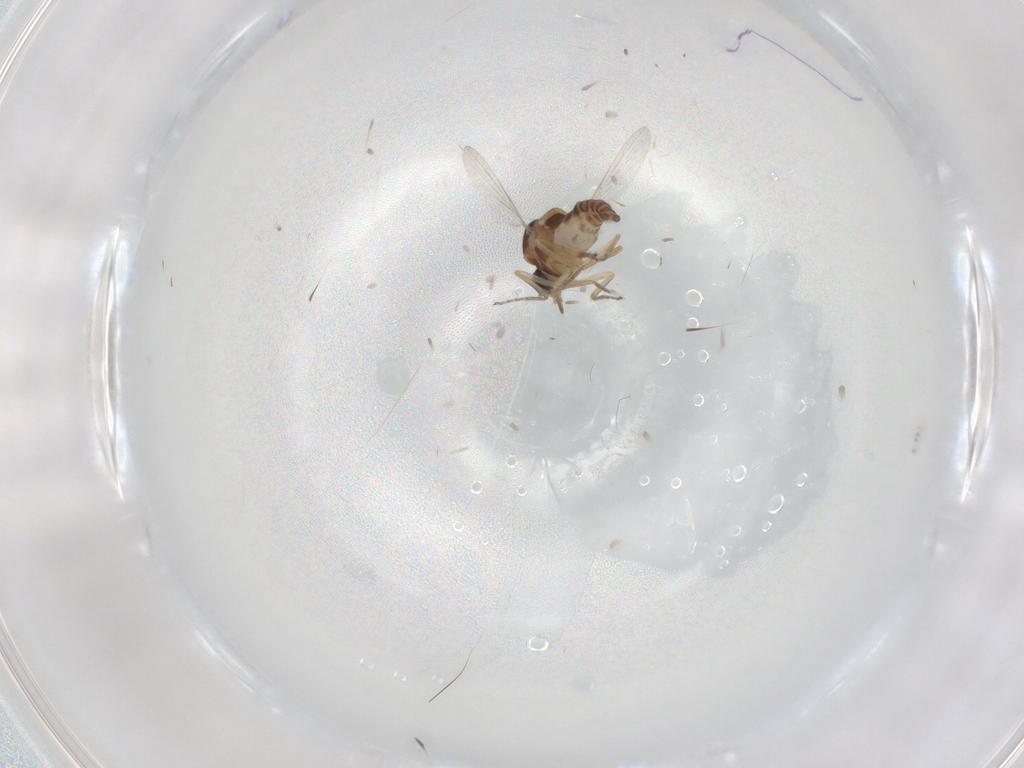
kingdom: Animalia
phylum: Arthropoda
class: Insecta
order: Diptera
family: Ceratopogonidae
